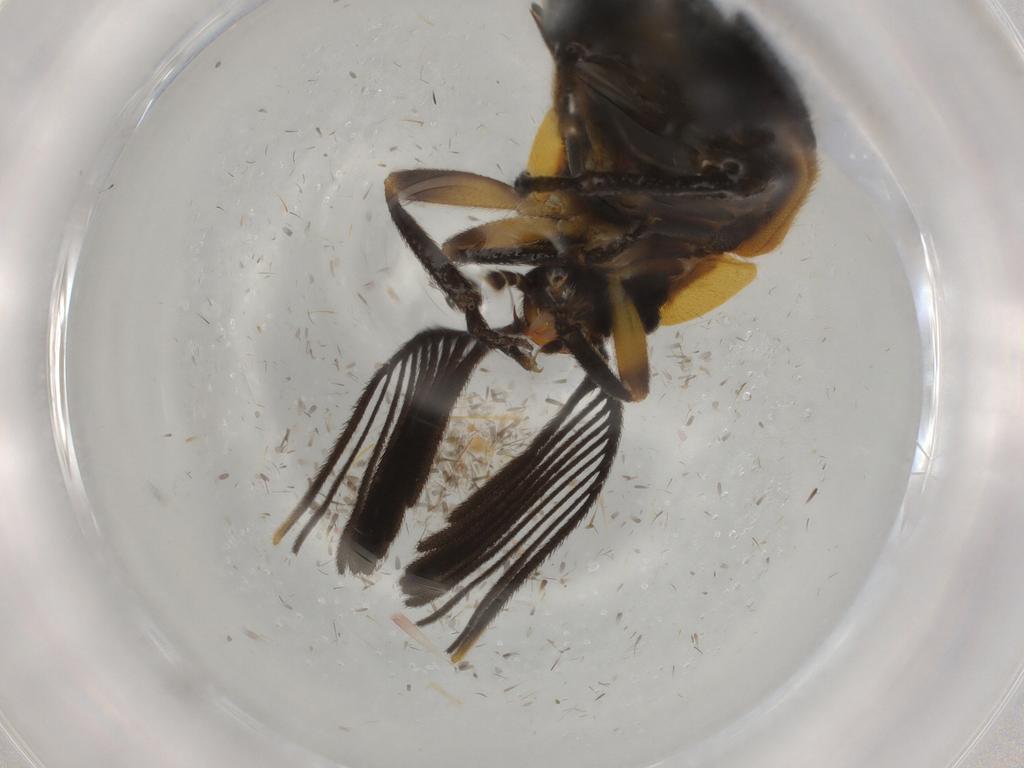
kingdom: Animalia
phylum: Arthropoda
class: Insecta
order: Coleoptera
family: Lampyridae
